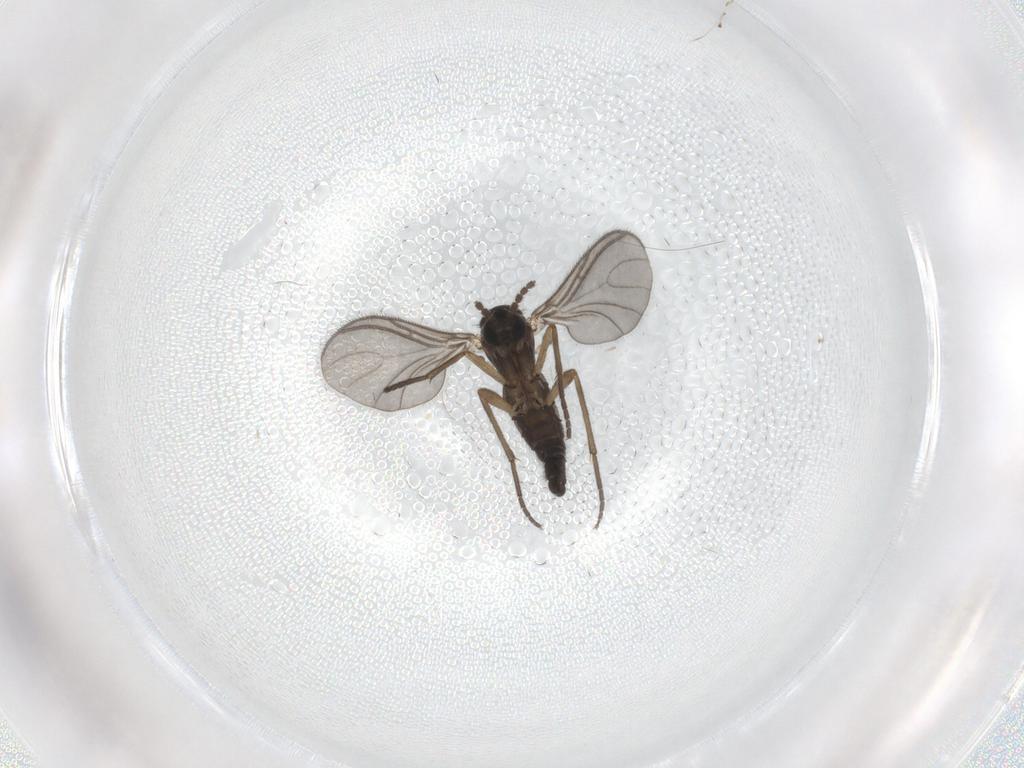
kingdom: Animalia
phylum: Arthropoda
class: Insecta
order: Diptera
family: Sciaridae
